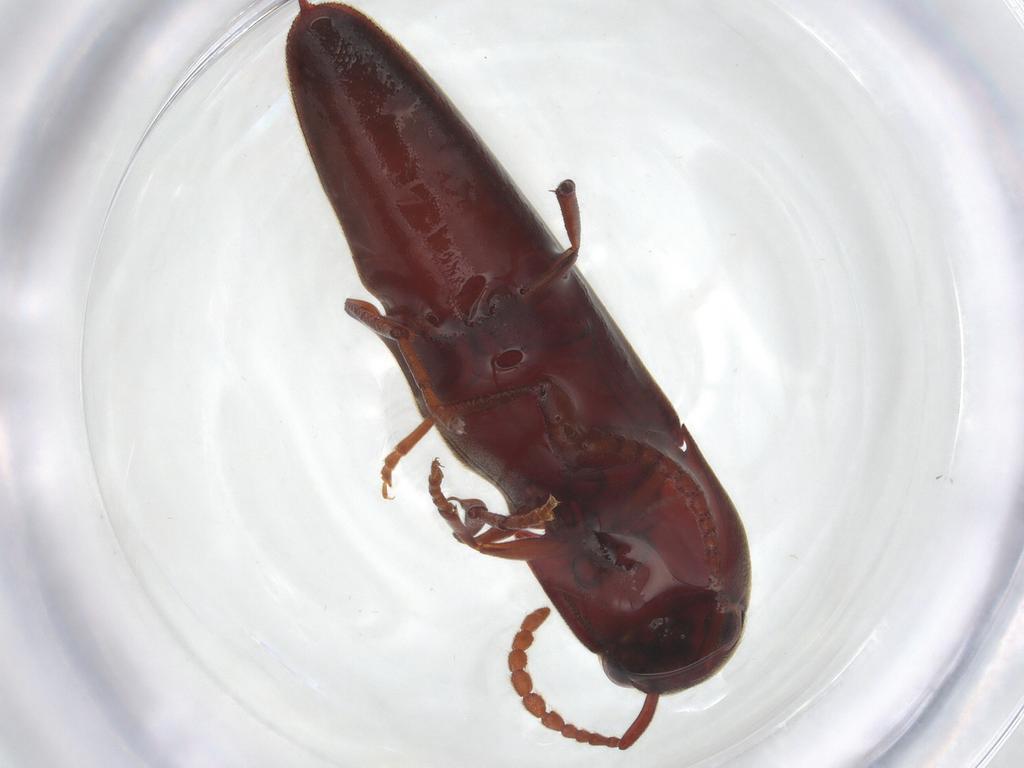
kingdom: Animalia
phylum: Arthropoda
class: Insecta
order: Coleoptera
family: Eucnemidae
